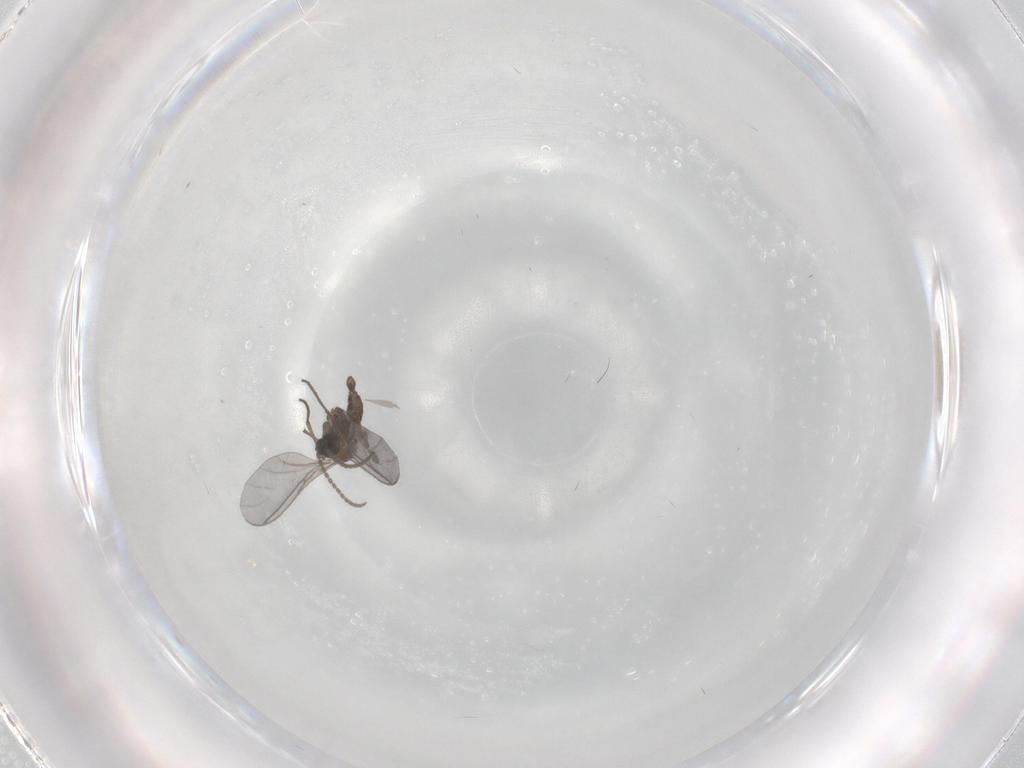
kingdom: Animalia
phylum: Arthropoda
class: Insecta
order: Diptera
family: Sciaridae
